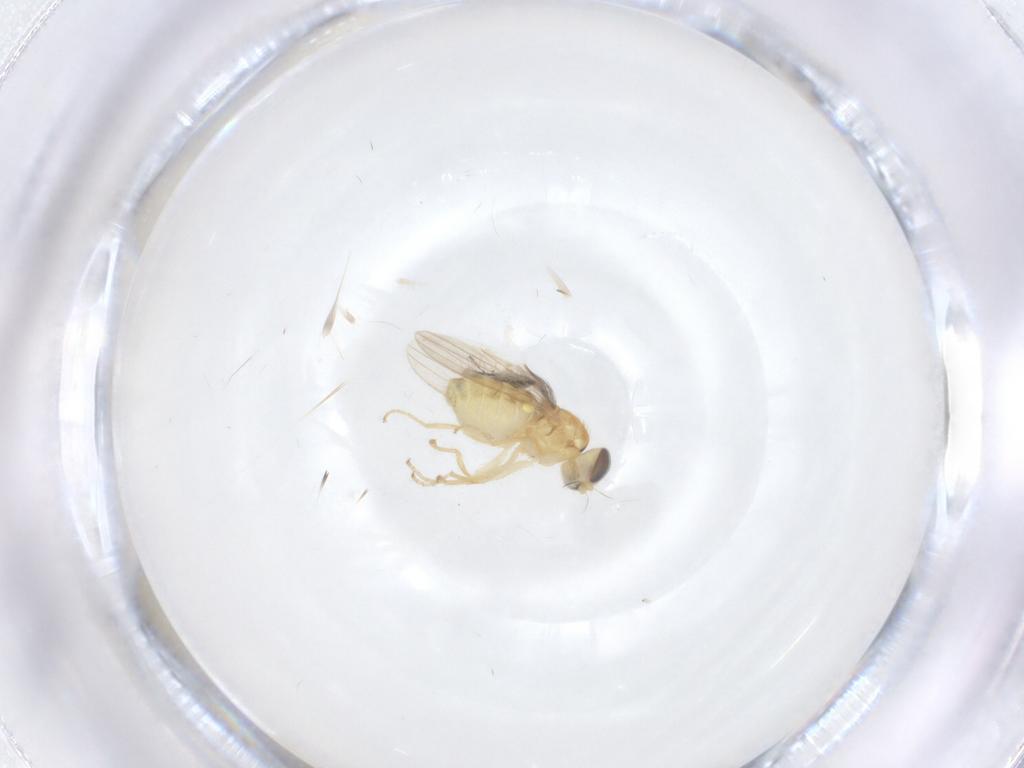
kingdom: Animalia
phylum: Arthropoda
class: Insecta
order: Diptera
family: Ceratopogonidae
